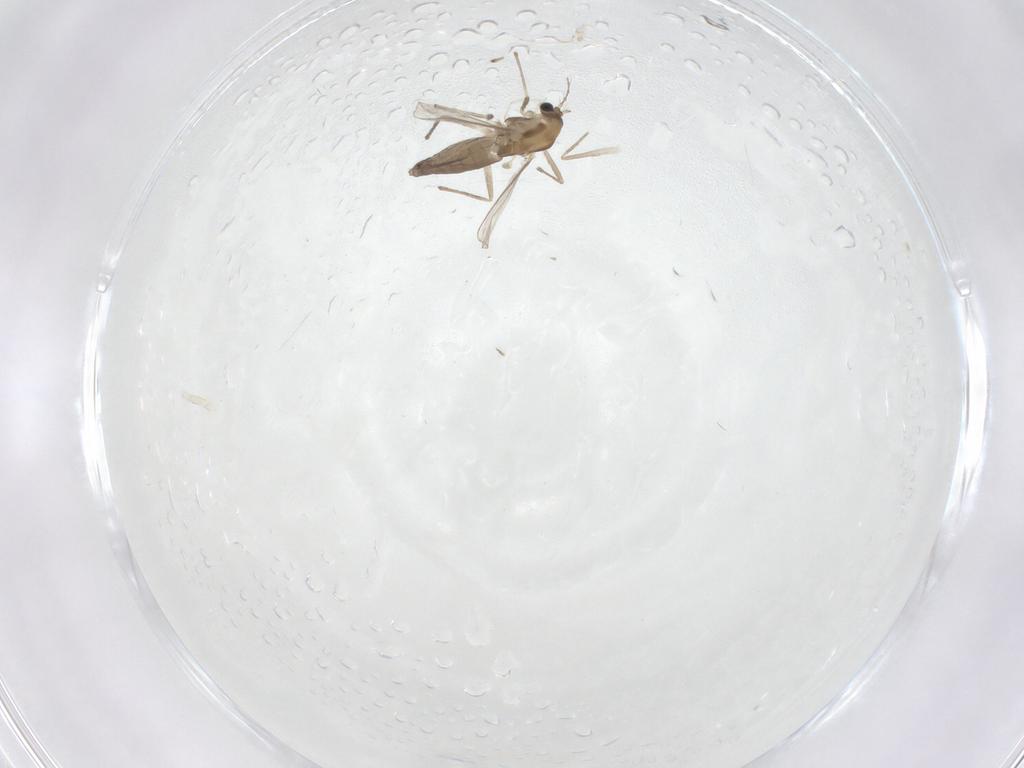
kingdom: Animalia
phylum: Arthropoda
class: Insecta
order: Diptera
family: Chironomidae
